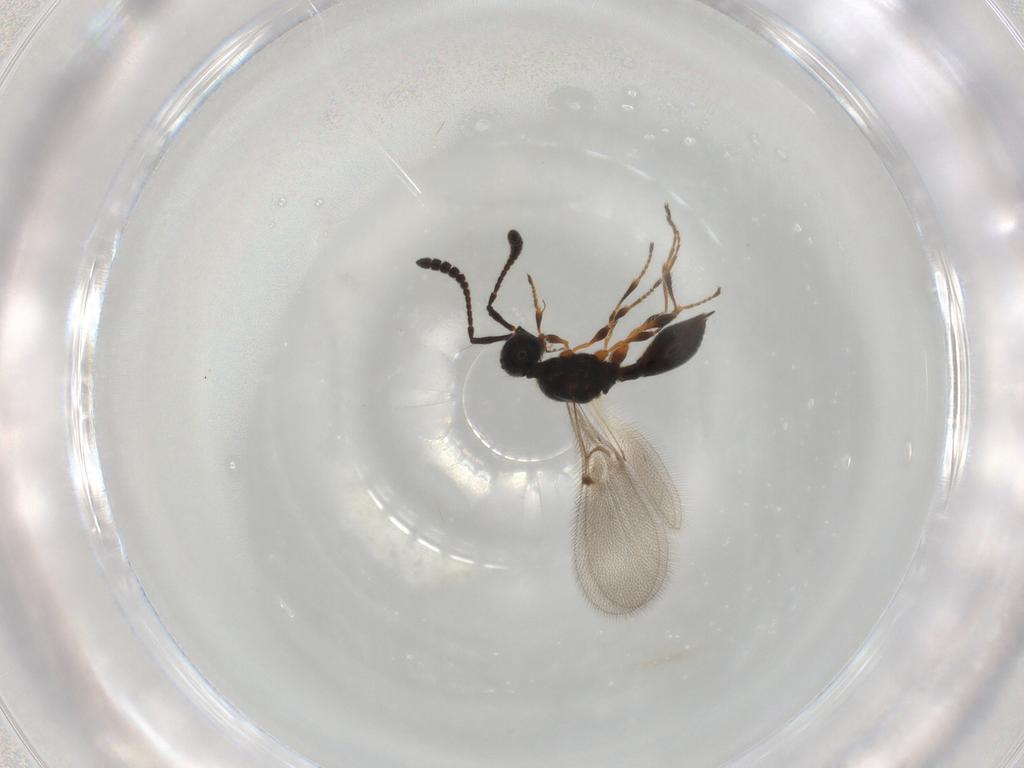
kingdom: Animalia
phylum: Arthropoda
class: Insecta
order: Hymenoptera
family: Diapriidae
